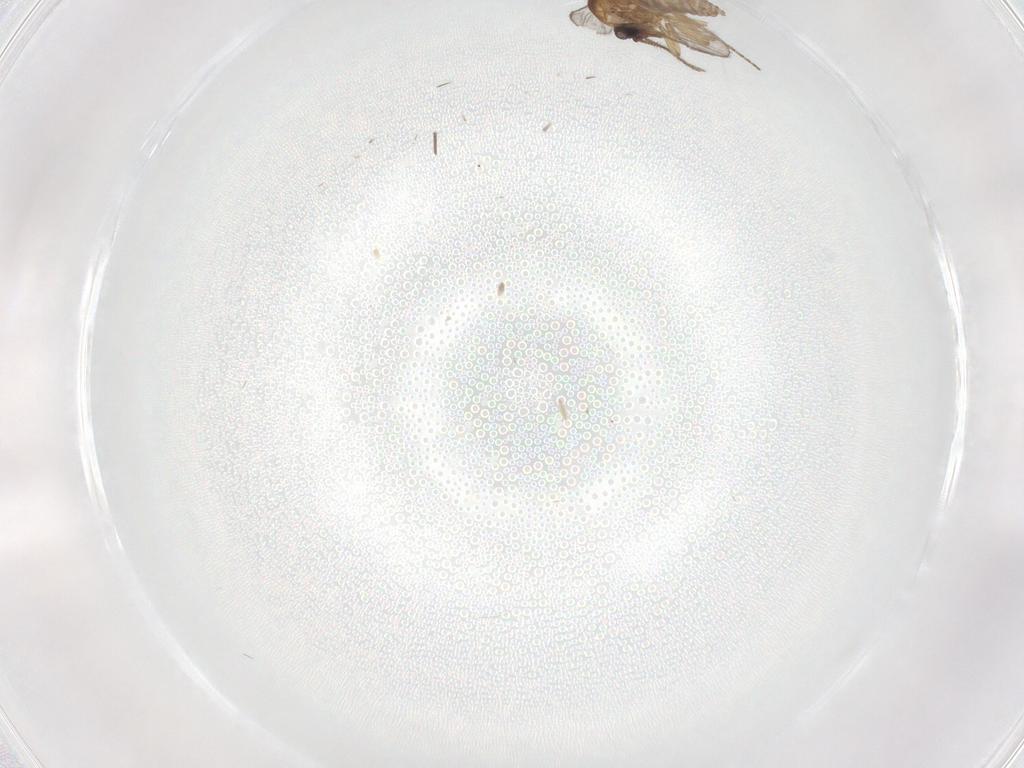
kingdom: Animalia
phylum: Arthropoda
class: Insecta
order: Diptera
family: Chironomidae
